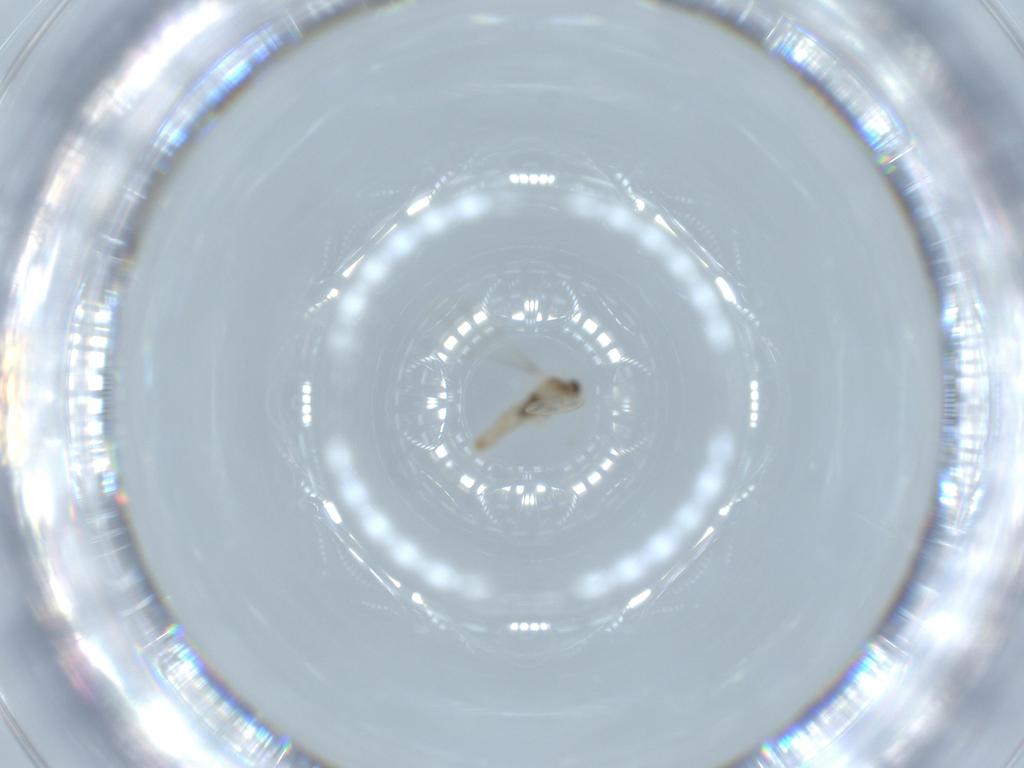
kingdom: Animalia
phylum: Arthropoda
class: Insecta
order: Diptera
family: Cecidomyiidae
